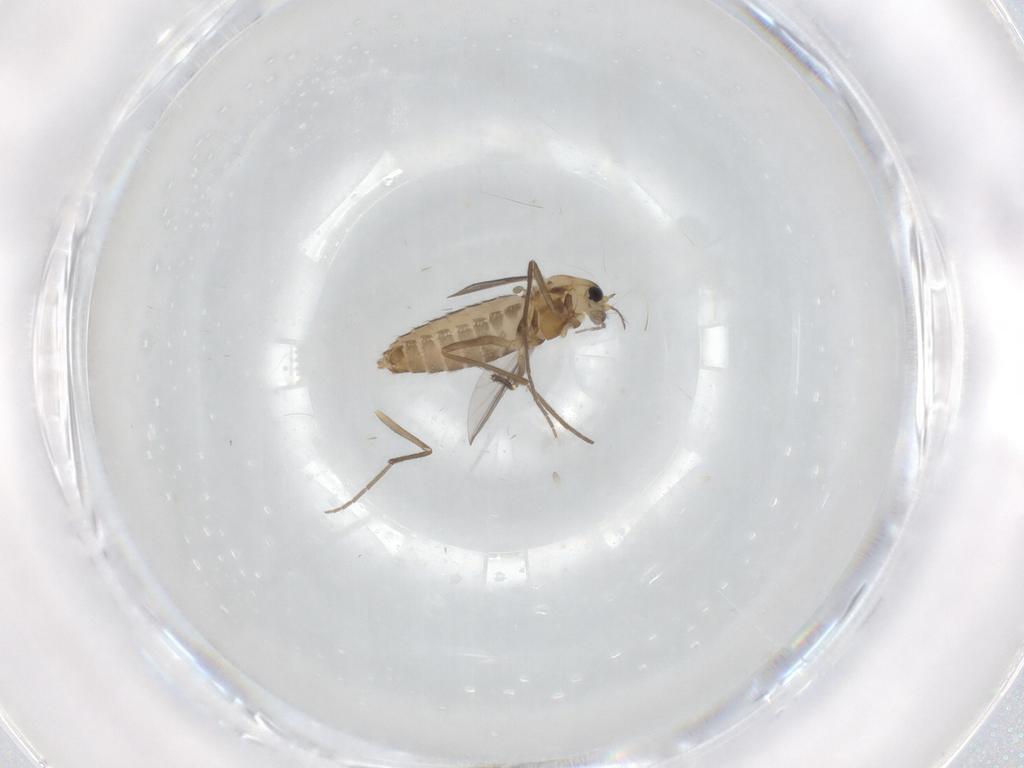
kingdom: Animalia
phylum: Arthropoda
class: Insecta
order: Diptera
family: Chironomidae
